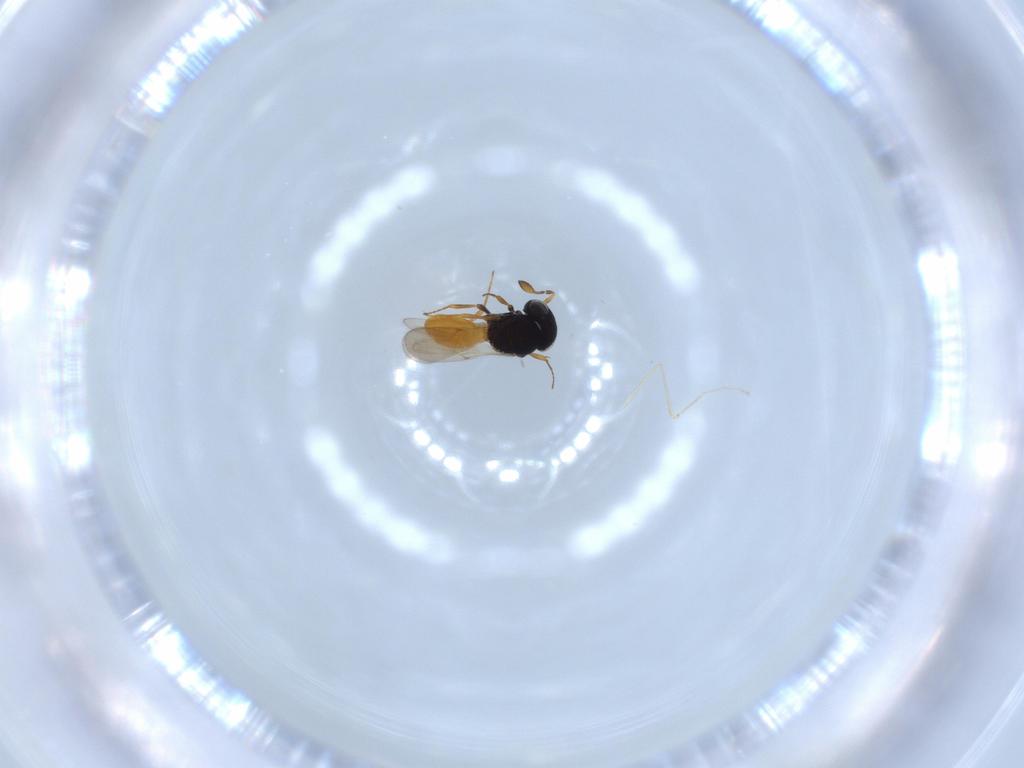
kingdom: Animalia
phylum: Arthropoda
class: Insecta
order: Hymenoptera
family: Scelionidae
